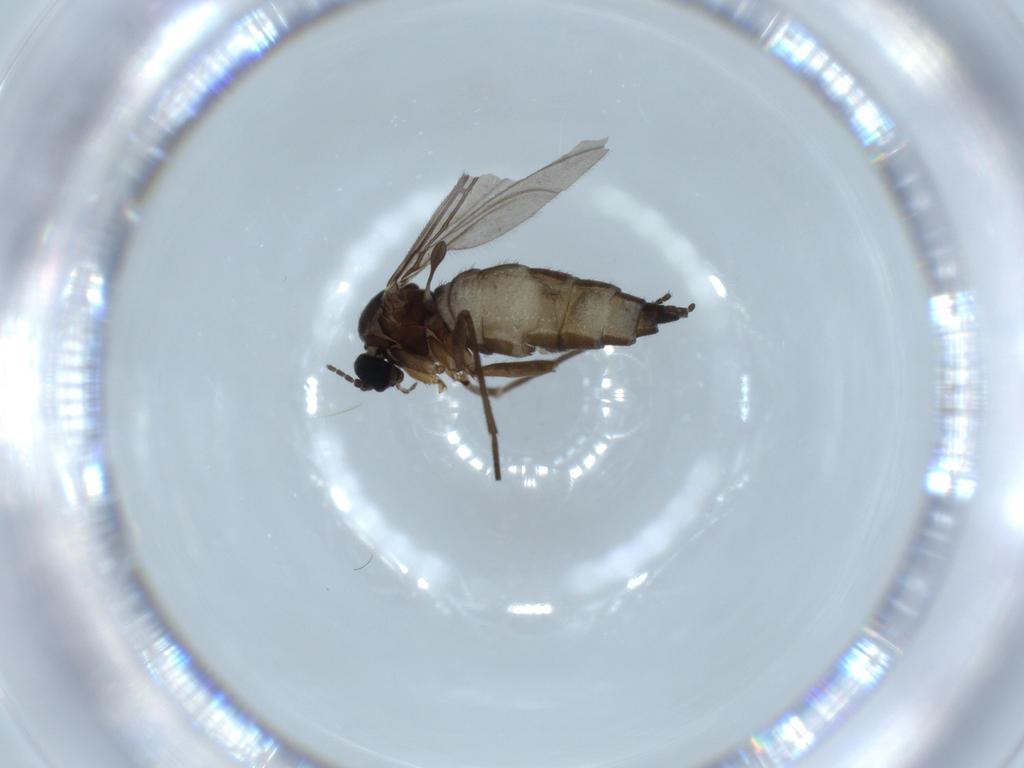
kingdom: Animalia
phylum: Arthropoda
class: Insecta
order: Diptera
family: Sciaridae
